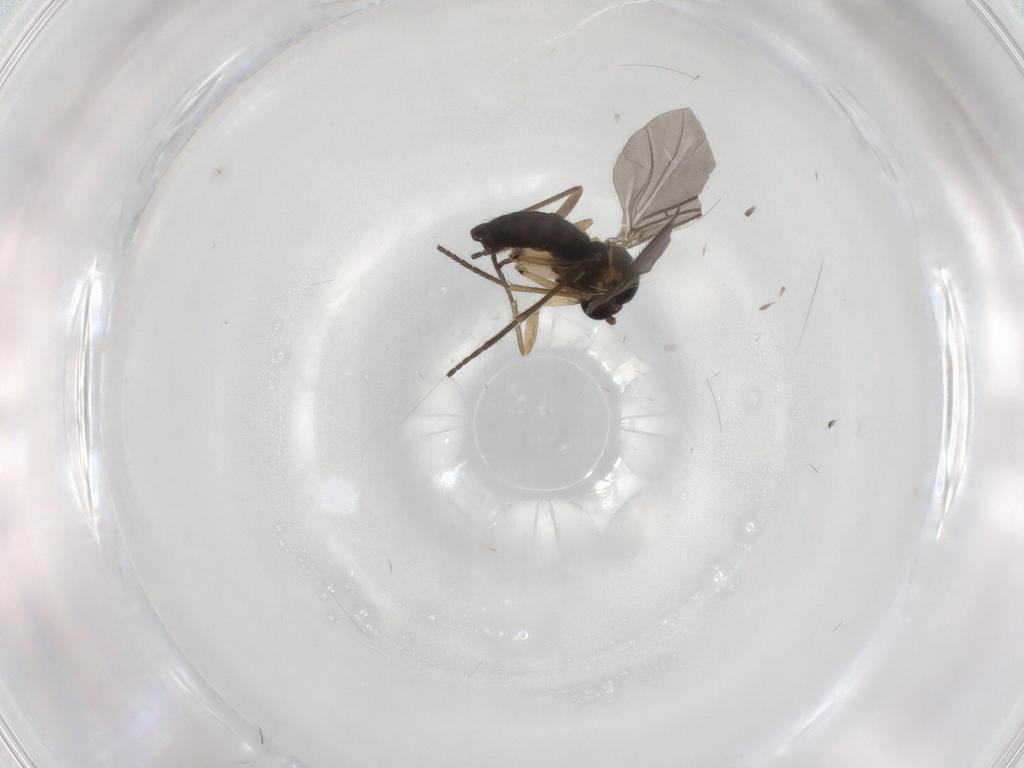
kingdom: Animalia
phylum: Arthropoda
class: Insecta
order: Diptera
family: Sciaridae
